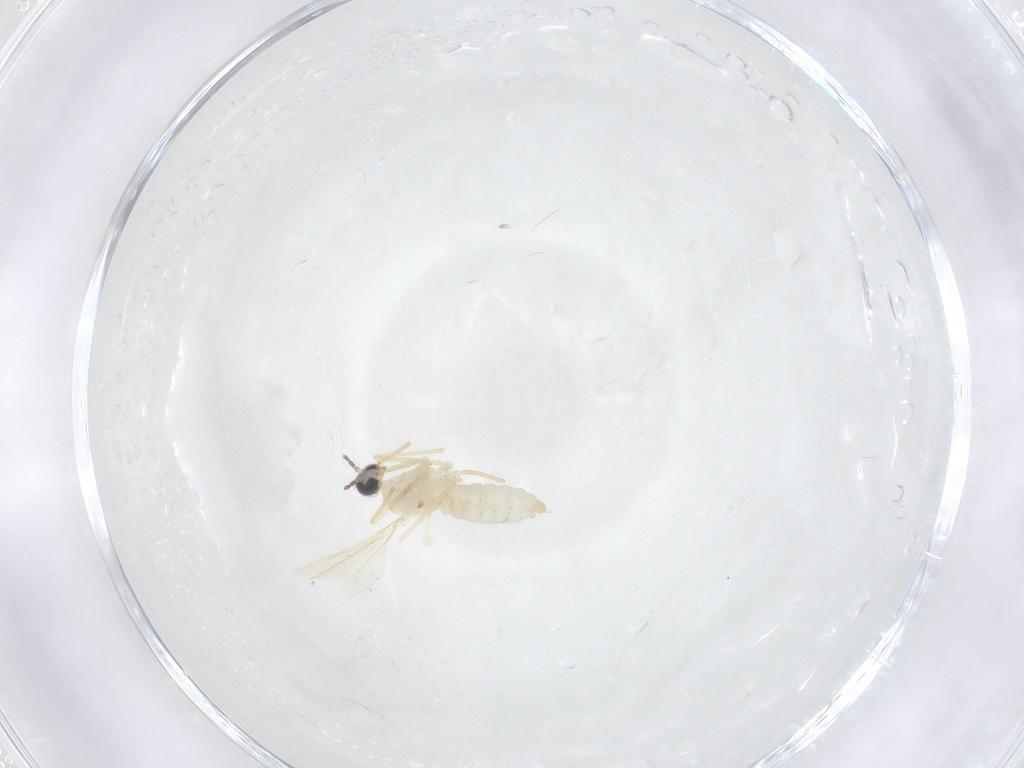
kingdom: Animalia
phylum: Arthropoda
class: Insecta
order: Diptera
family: Cecidomyiidae
